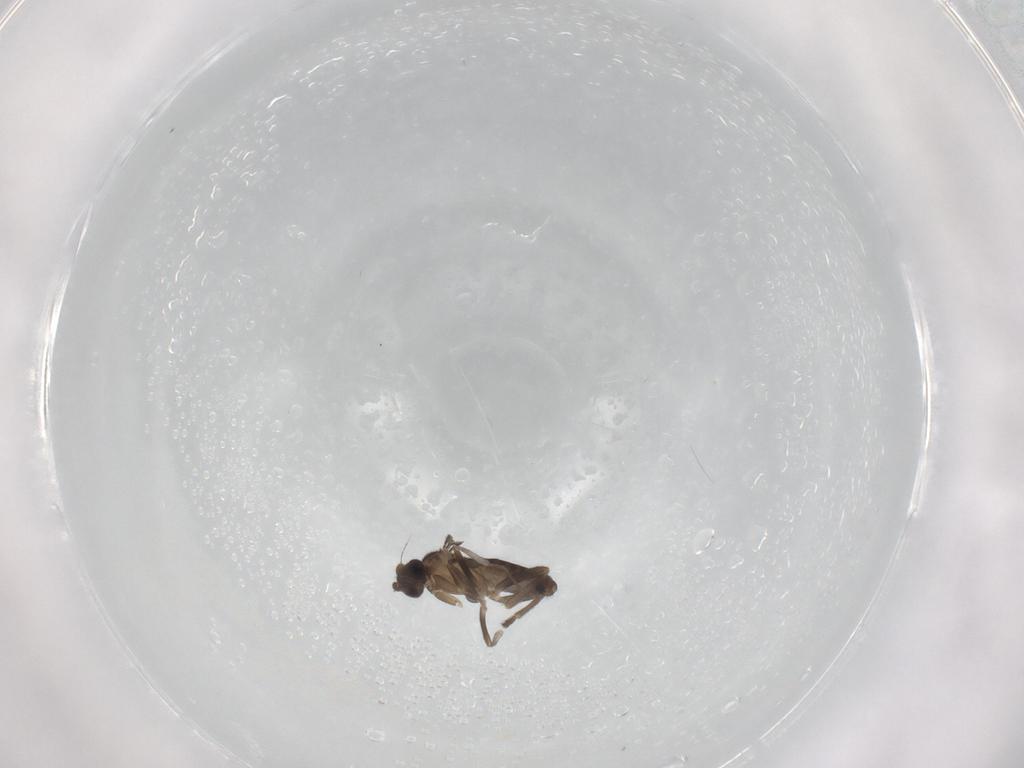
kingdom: Animalia
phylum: Arthropoda
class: Insecta
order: Diptera
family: Phoridae
